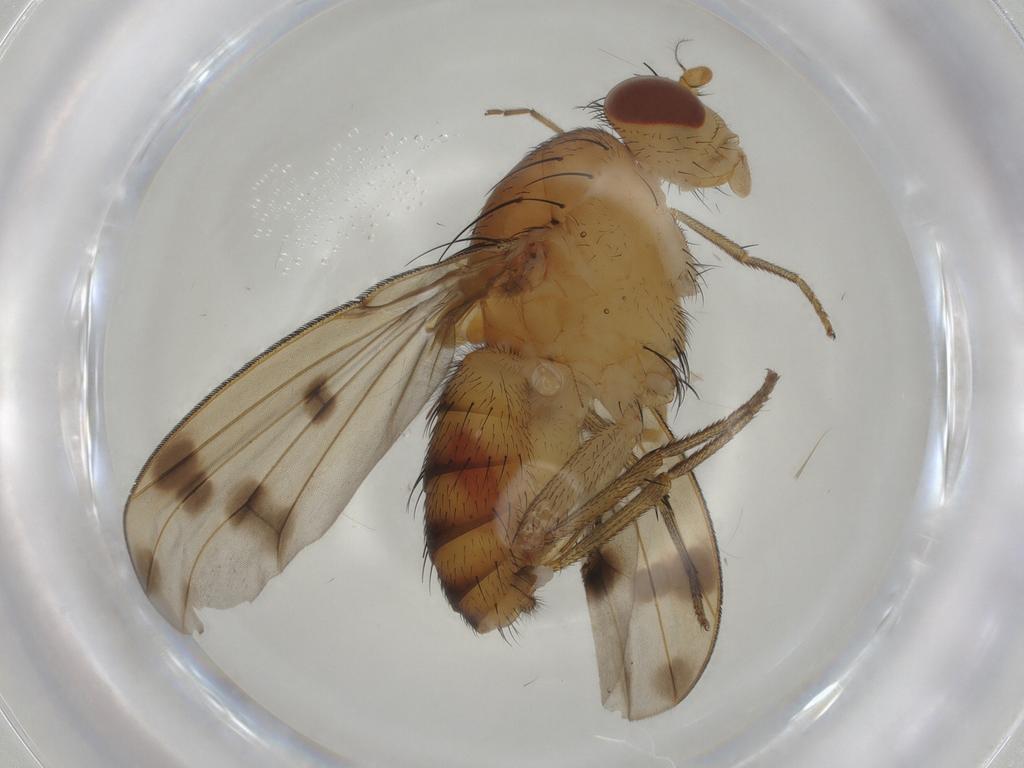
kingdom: Animalia
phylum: Arthropoda
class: Insecta
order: Diptera
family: Chironomidae
